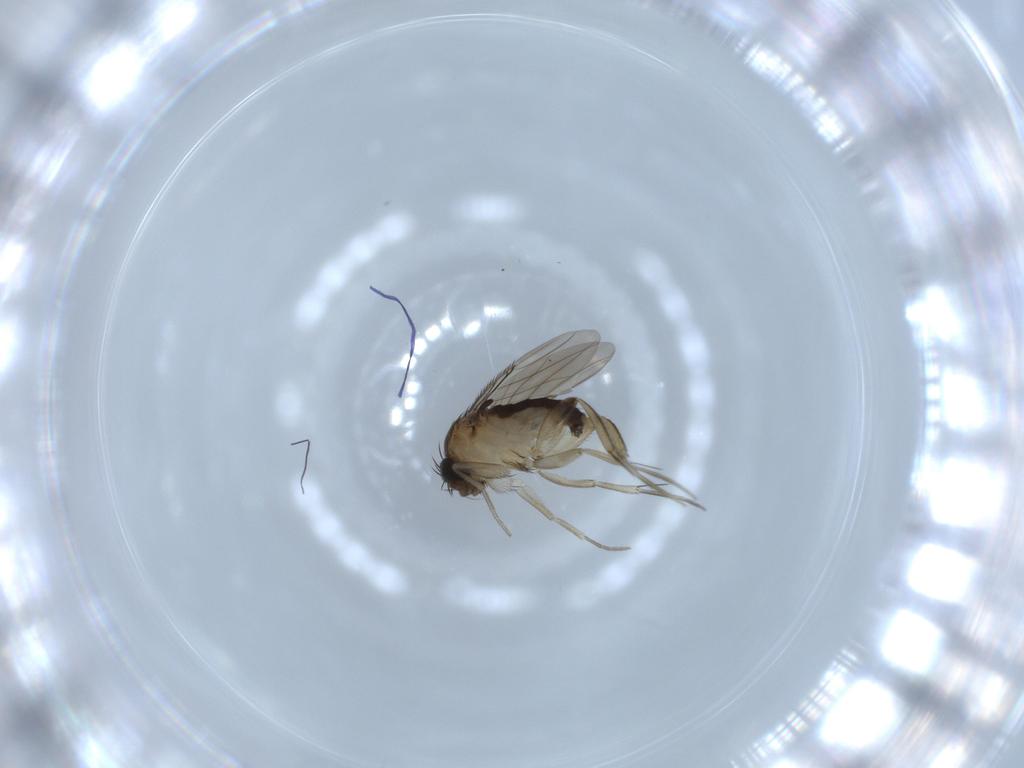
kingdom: Animalia
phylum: Arthropoda
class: Insecta
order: Diptera
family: Phoridae
